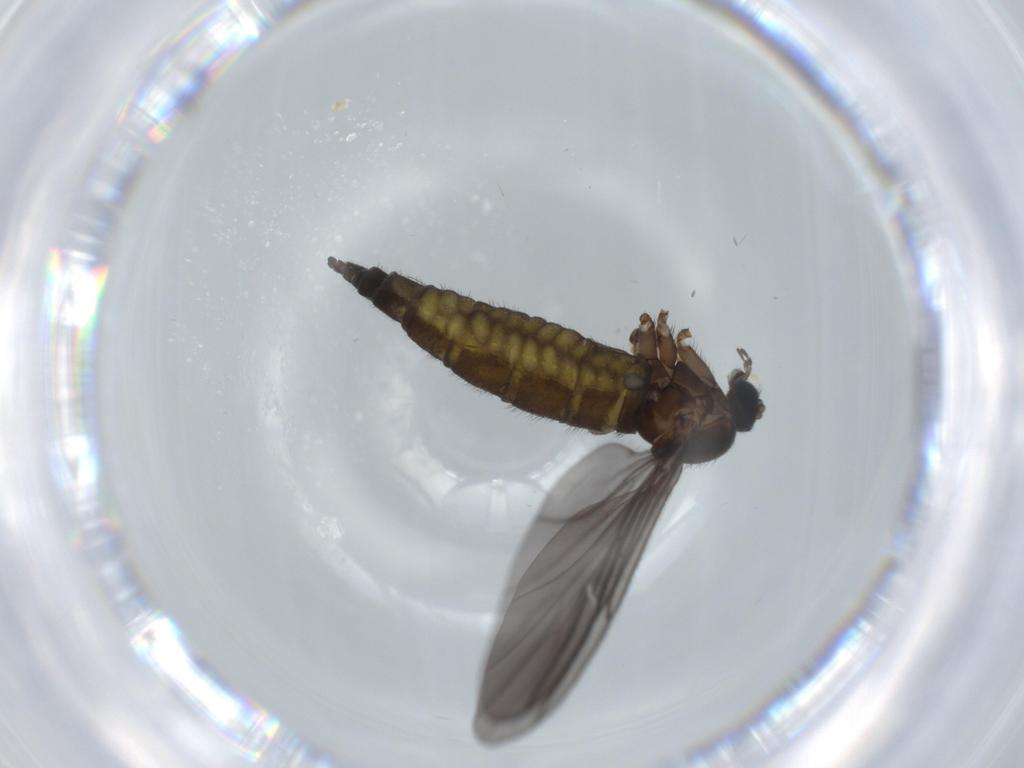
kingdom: Animalia
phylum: Arthropoda
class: Insecta
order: Diptera
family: Sciaridae
